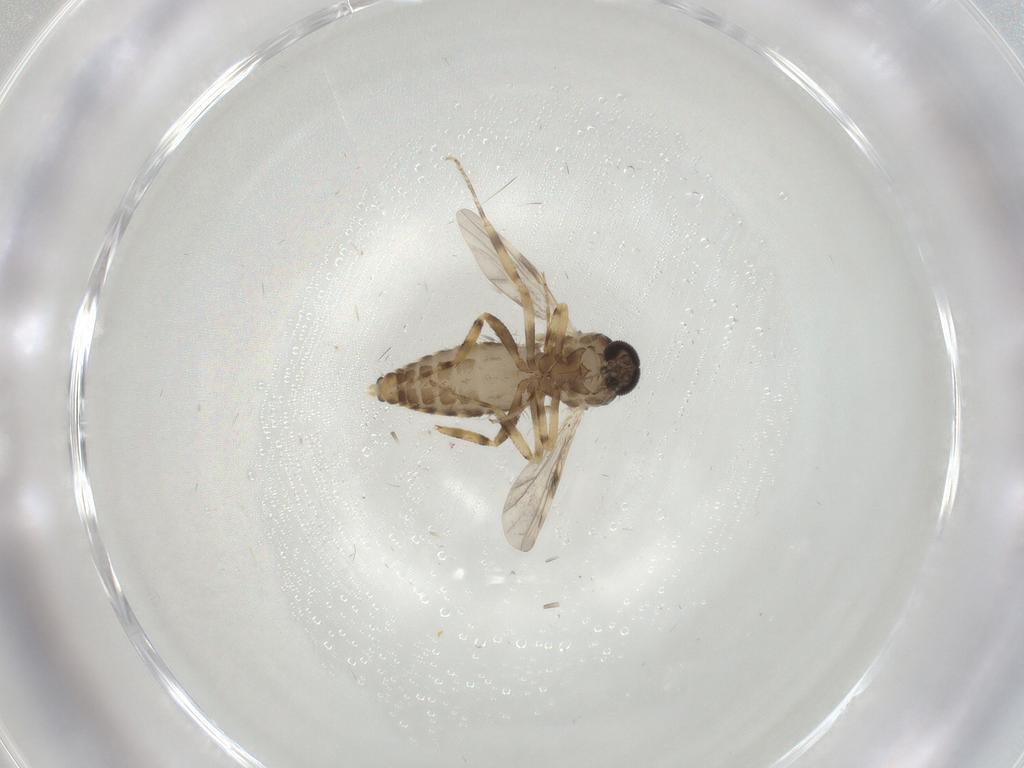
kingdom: Animalia
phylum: Arthropoda
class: Insecta
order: Diptera
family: Ceratopogonidae
